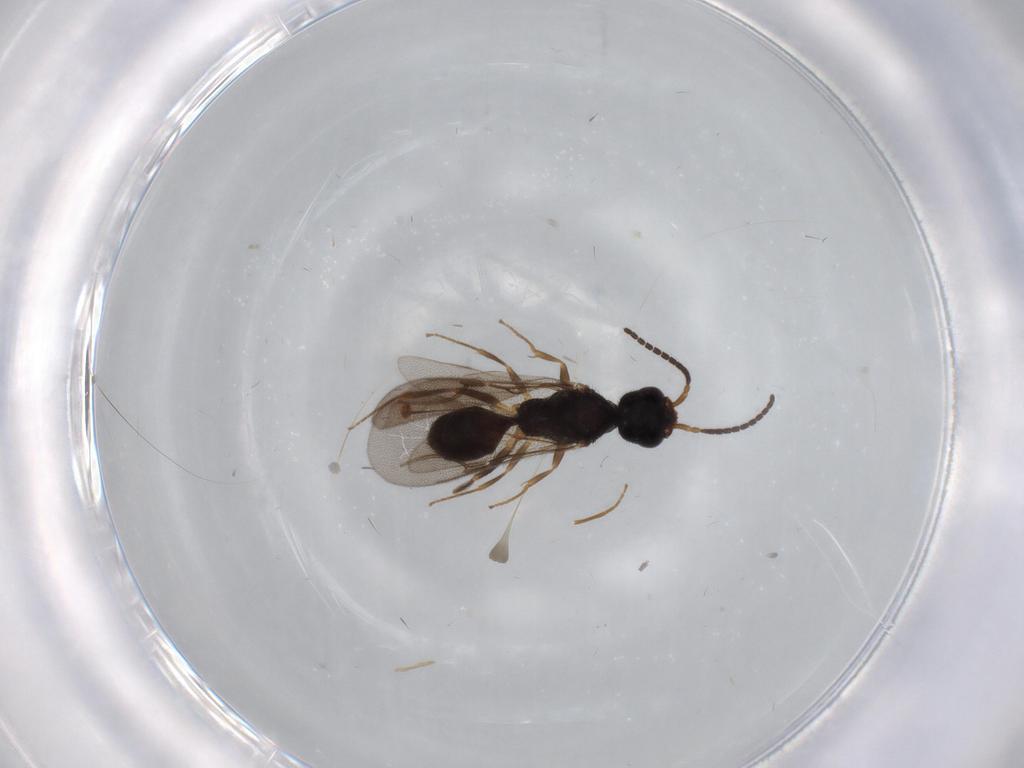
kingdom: Animalia
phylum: Arthropoda
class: Insecta
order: Hymenoptera
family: Bethylidae
